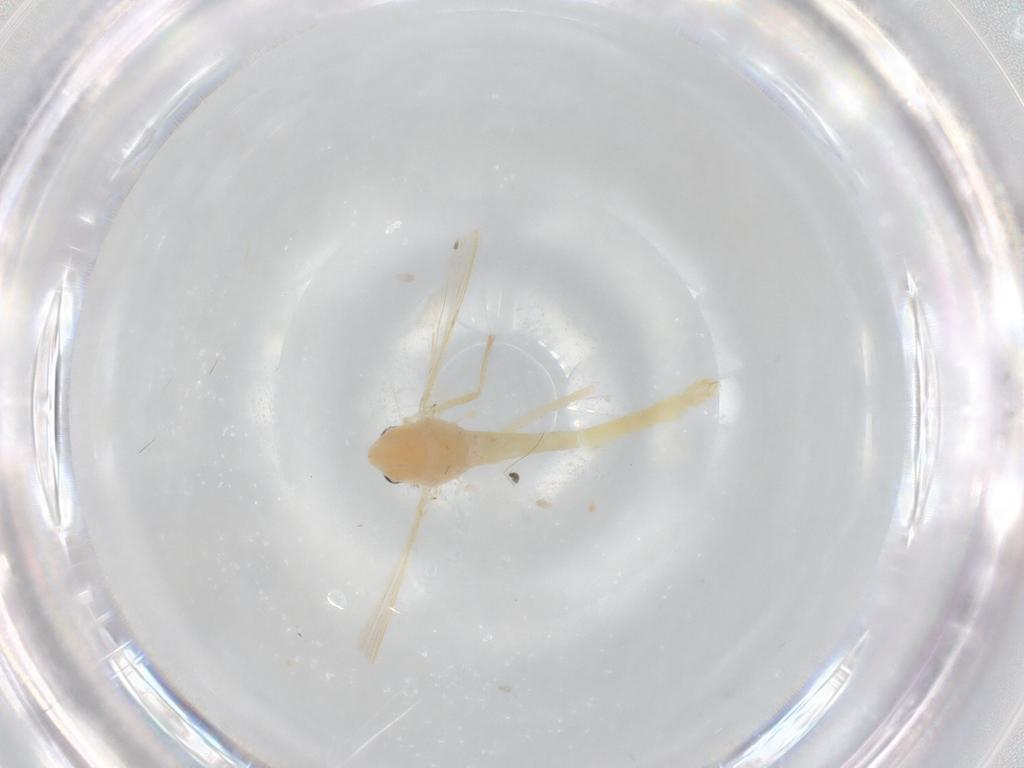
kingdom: Animalia
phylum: Arthropoda
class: Insecta
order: Diptera
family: Chironomidae
